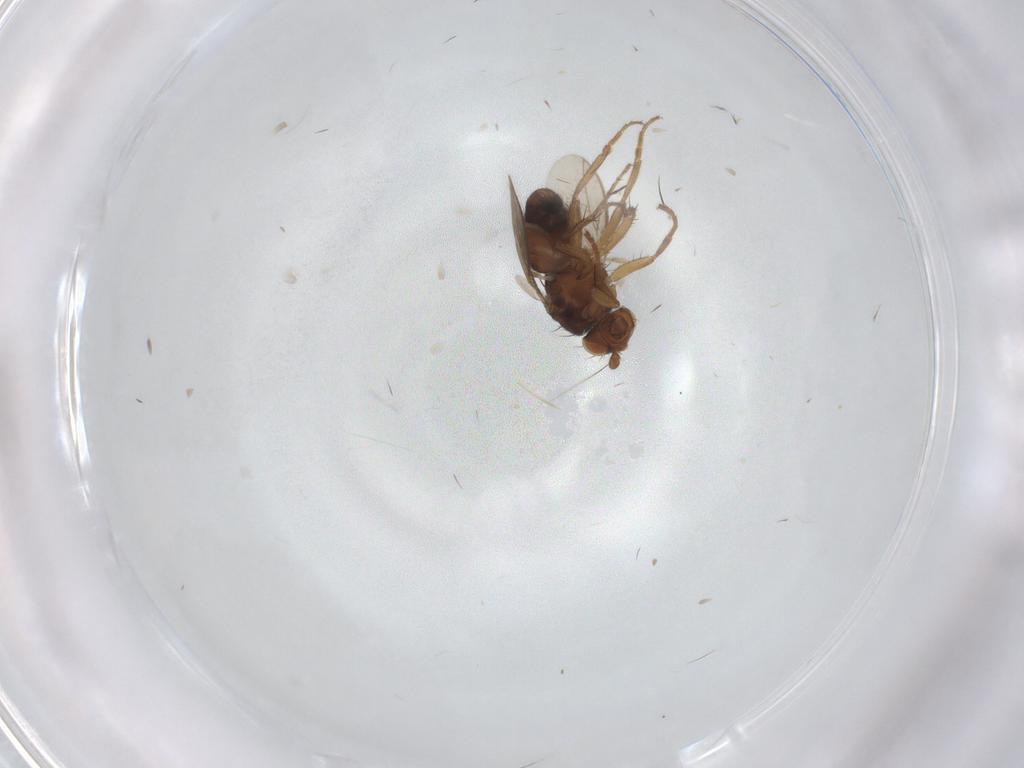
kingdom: Animalia
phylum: Arthropoda
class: Insecta
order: Diptera
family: Sphaeroceridae
